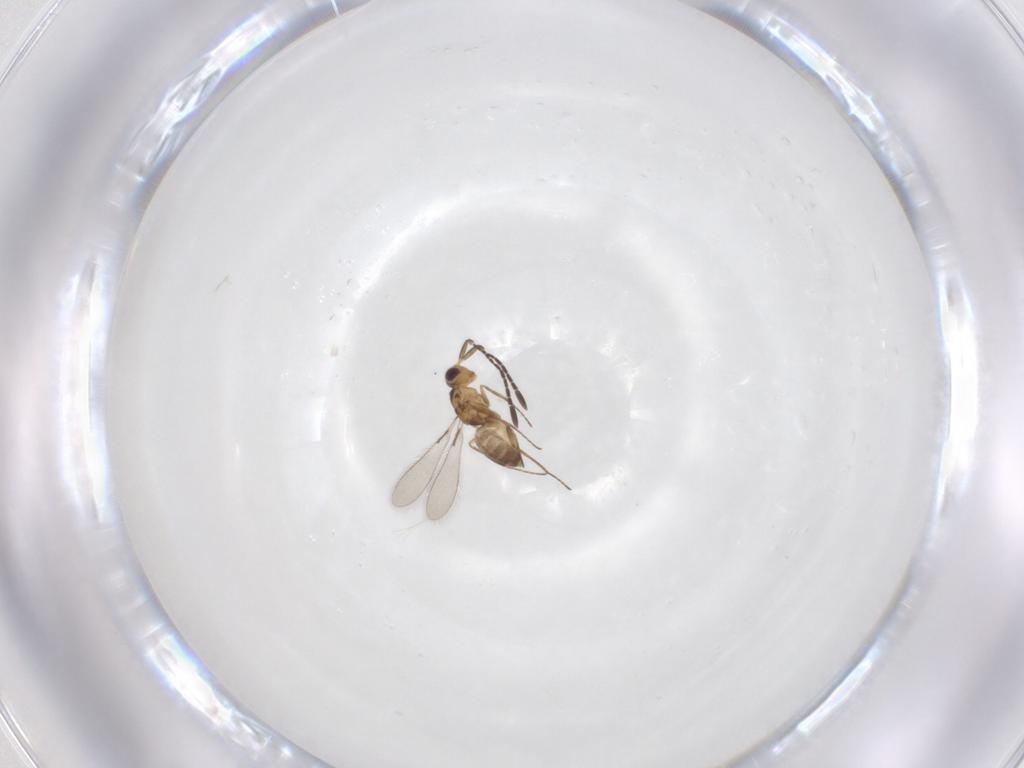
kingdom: Animalia
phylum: Arthropoda
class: Insecta
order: Hymenoptera
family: Mymaridae
